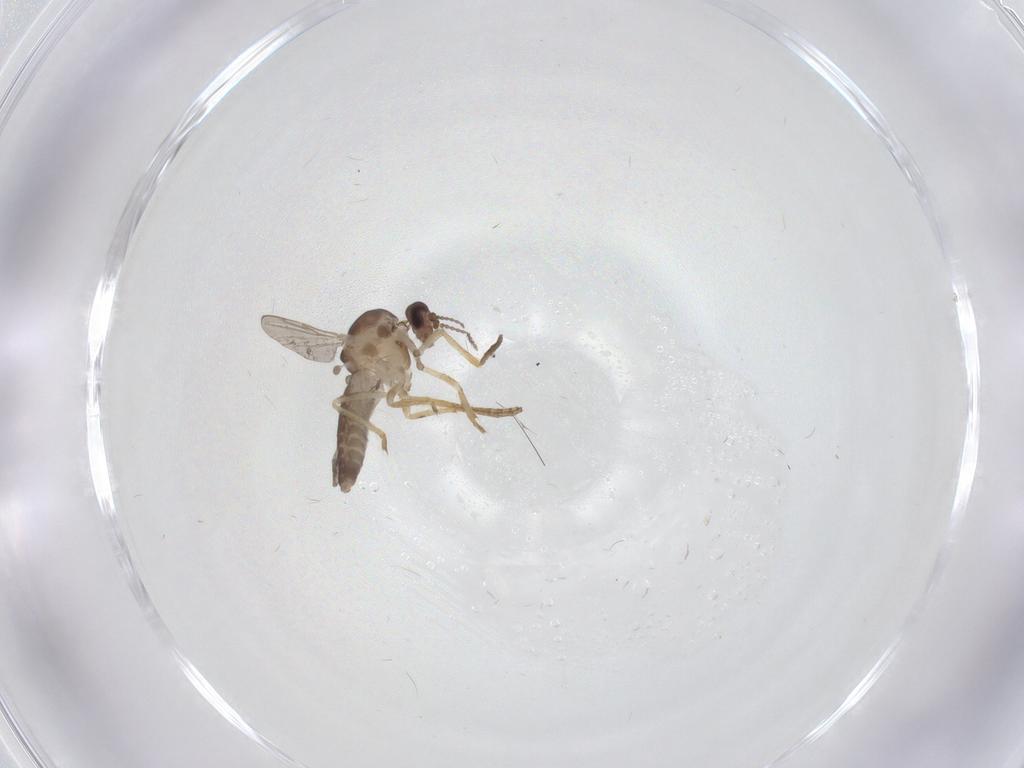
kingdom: Animalia
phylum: Arthropoda
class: Insecta
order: Diptera
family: Ceratopogonidae
